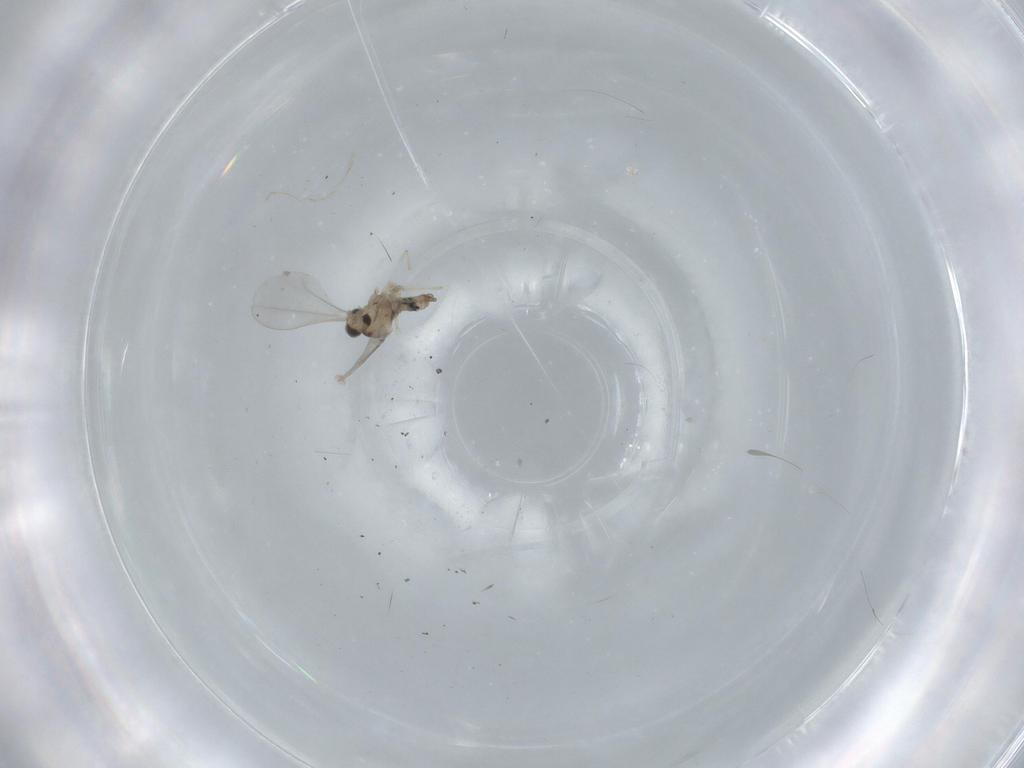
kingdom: Animalia
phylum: Arthropoda
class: Insecta
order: Diptera
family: Cecidomyiidae
